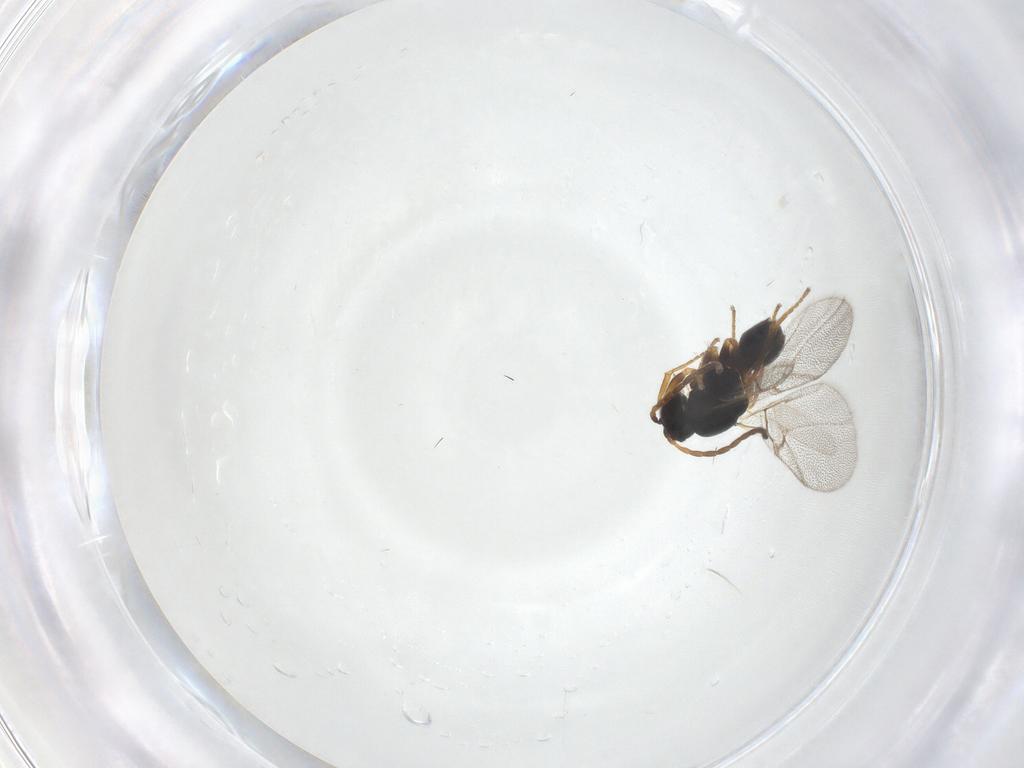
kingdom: Animalia
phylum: Arthropoda
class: Insecta
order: Hymenoptera
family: Cynipidae
